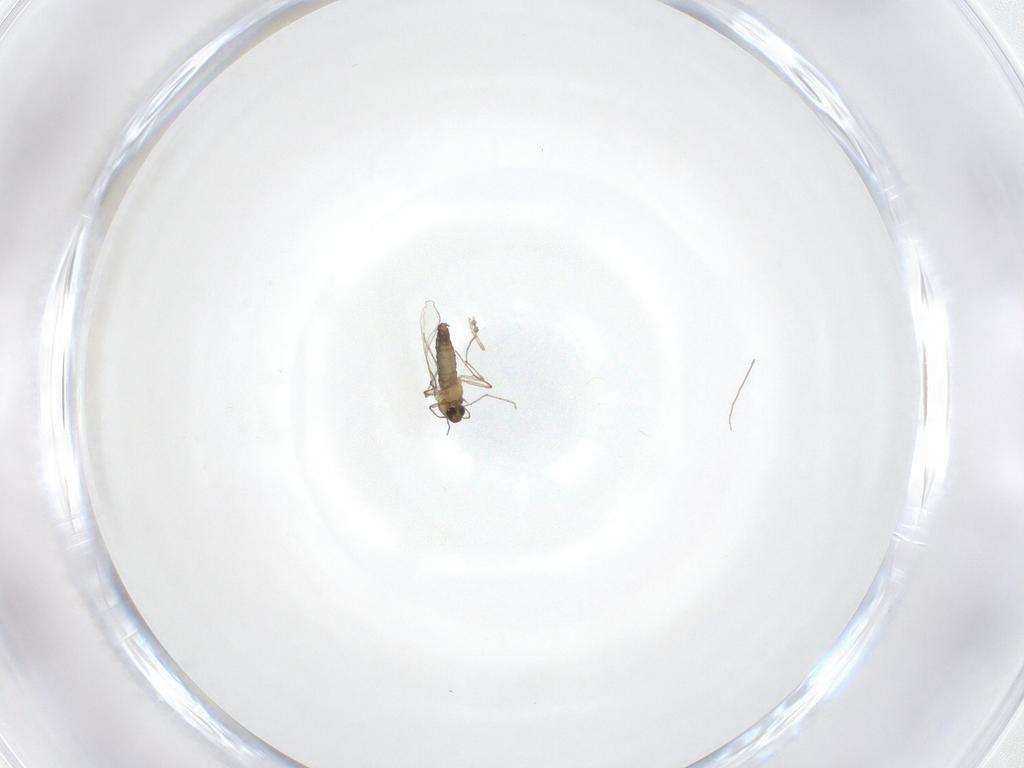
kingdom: Animalia
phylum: Arthropoda
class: Insecta
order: Diptera
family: Chironomidae
